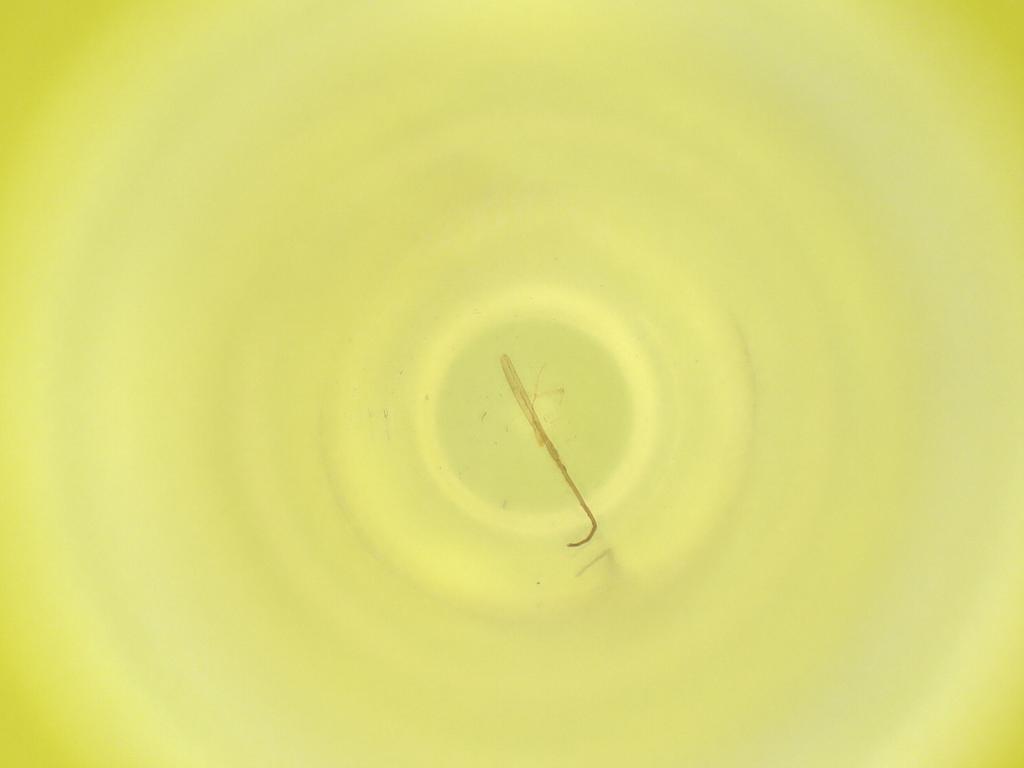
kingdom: Animalia
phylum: Arthropoda
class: Insecta
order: Diptera
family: Cecidomyiidae
